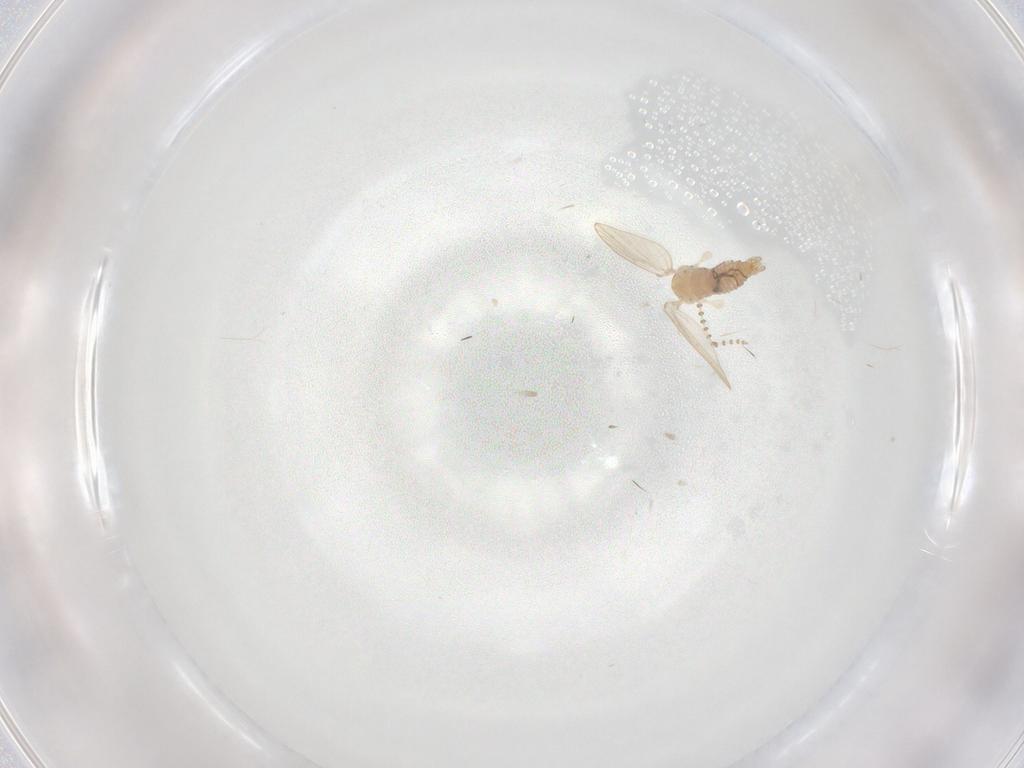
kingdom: Animalia
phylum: Arthropoda
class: Insecta
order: Diptera
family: Psychodidae
